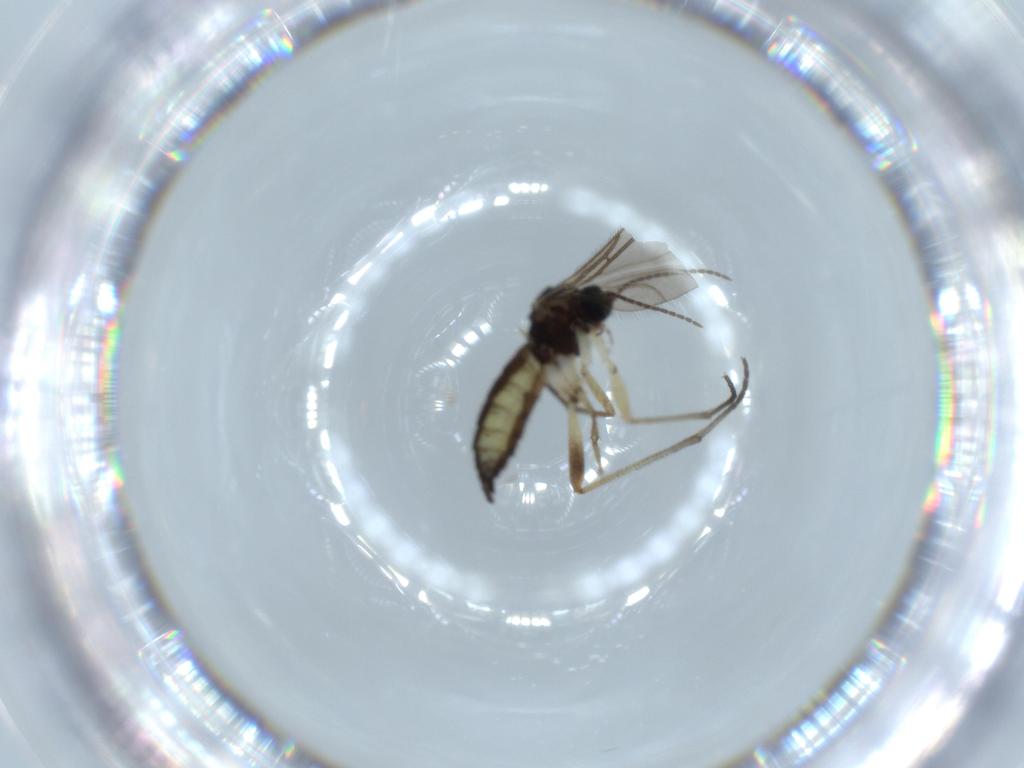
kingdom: Animalia
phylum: Arthropoda
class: Insecta
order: Diptera
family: Sciaridae
